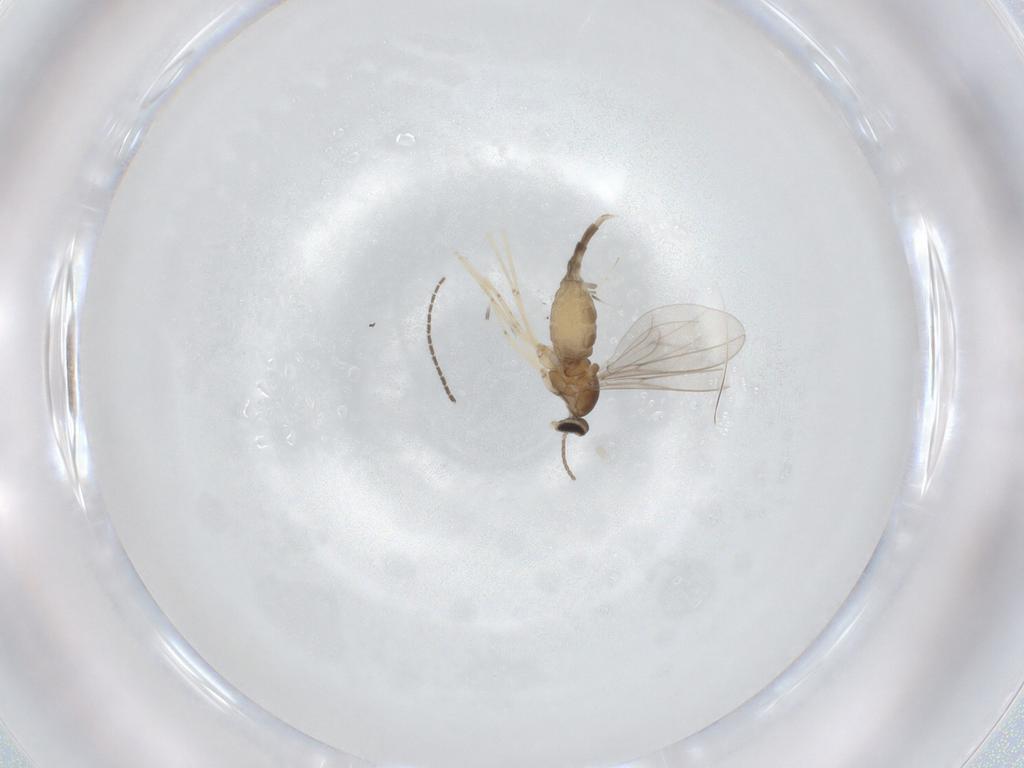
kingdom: Animalia
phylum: Arthropoda
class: Insecta
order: Diptera
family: Cecidomyiidae
